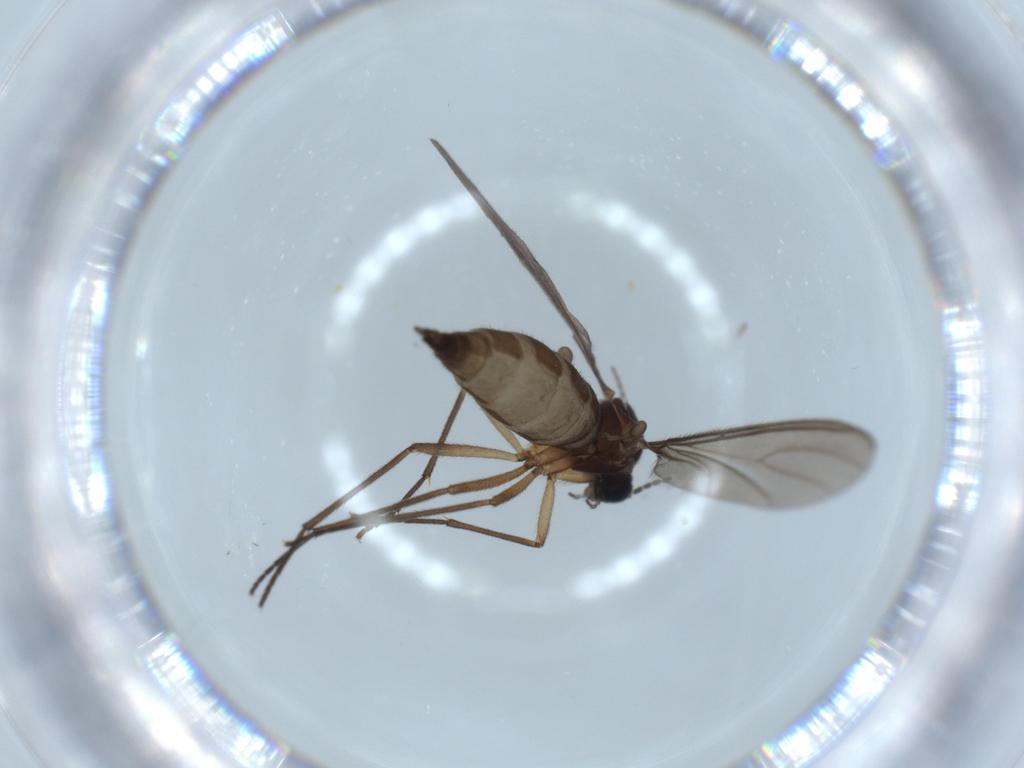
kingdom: Animalia
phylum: Arthropoda
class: Insecta
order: Diptera
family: Sciaridae
